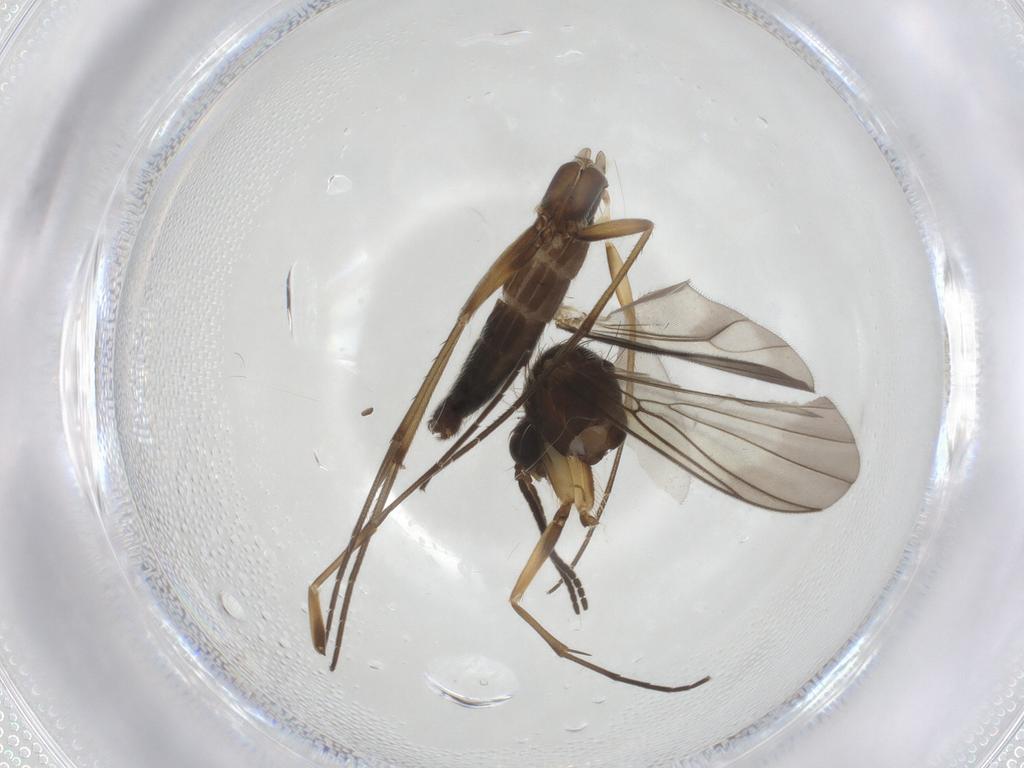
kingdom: Animalia
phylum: Arthropoda
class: Insecta
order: Diptera
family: Mycetophilidae
